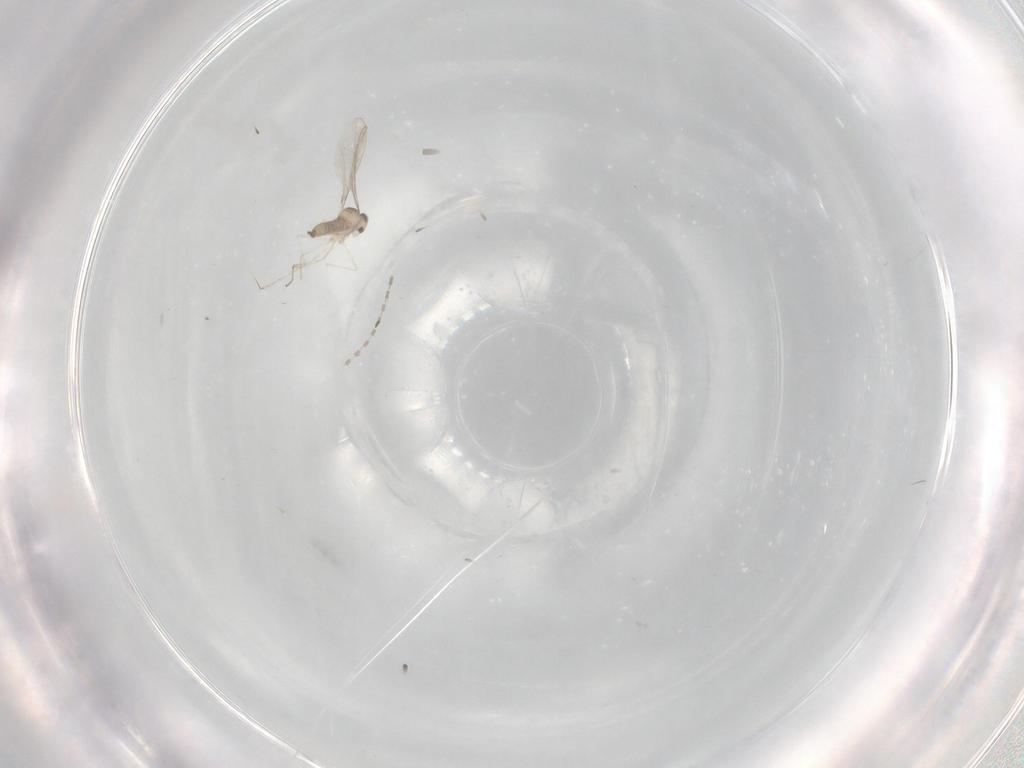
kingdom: Animalia
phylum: Arthropoda
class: Insecta
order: Diptera
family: Cecidomyiidae
